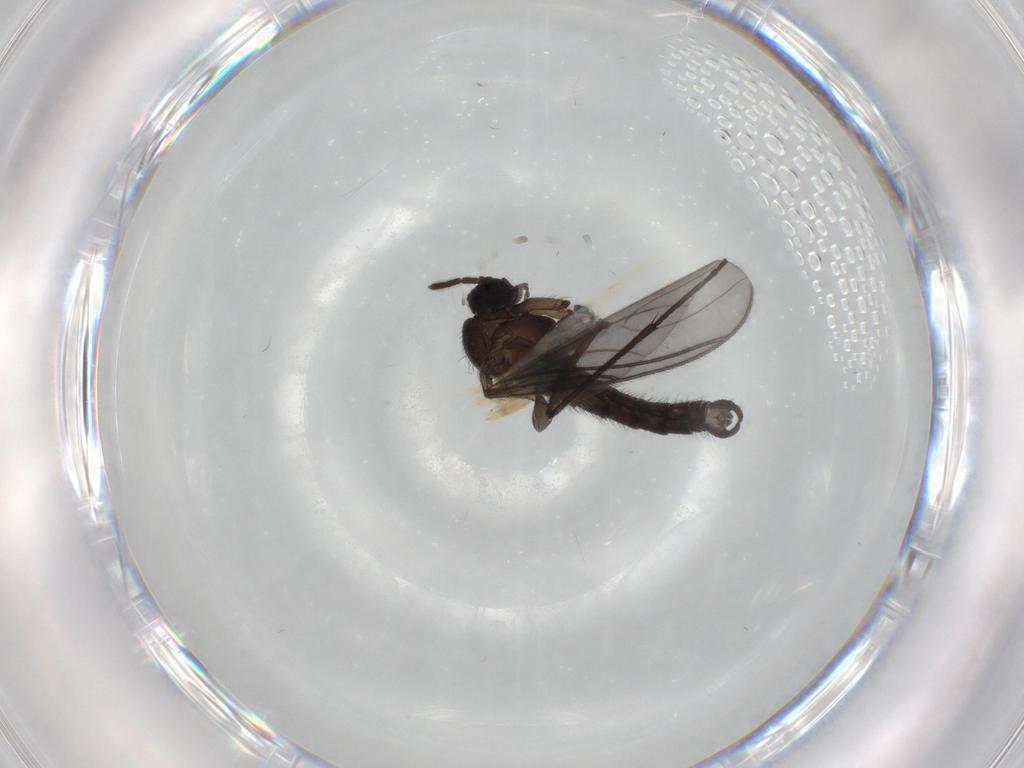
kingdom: Animalia
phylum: Arthropoda
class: Insecta
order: Diptera
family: Sciaridae
